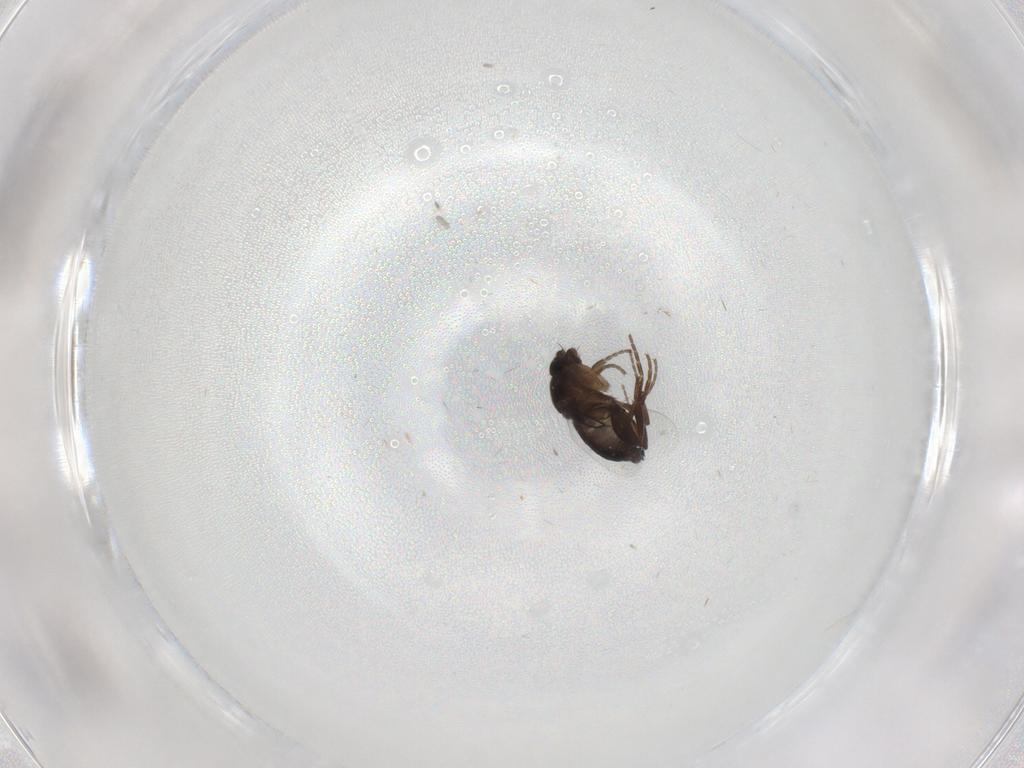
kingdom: Animalia
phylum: Arthropoda
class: Insecta
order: Diptera
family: Cecidomyiidae
